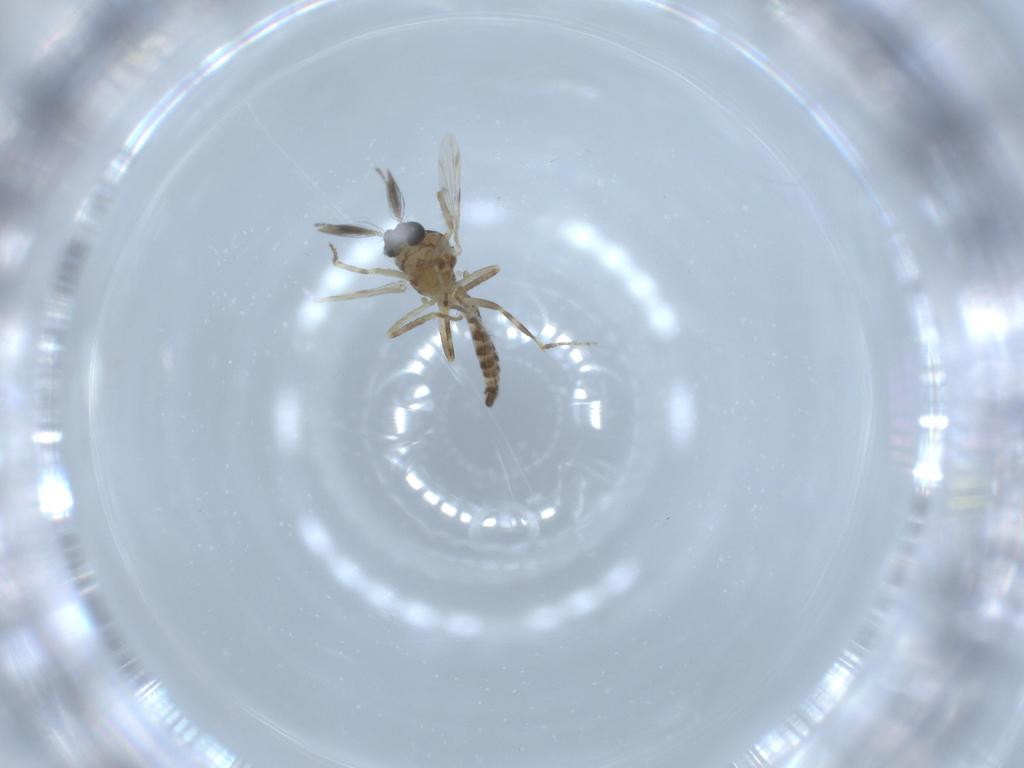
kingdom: Animalia
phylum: Arthropoda
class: Insecta
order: Diptera
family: Ceratopogonidae
